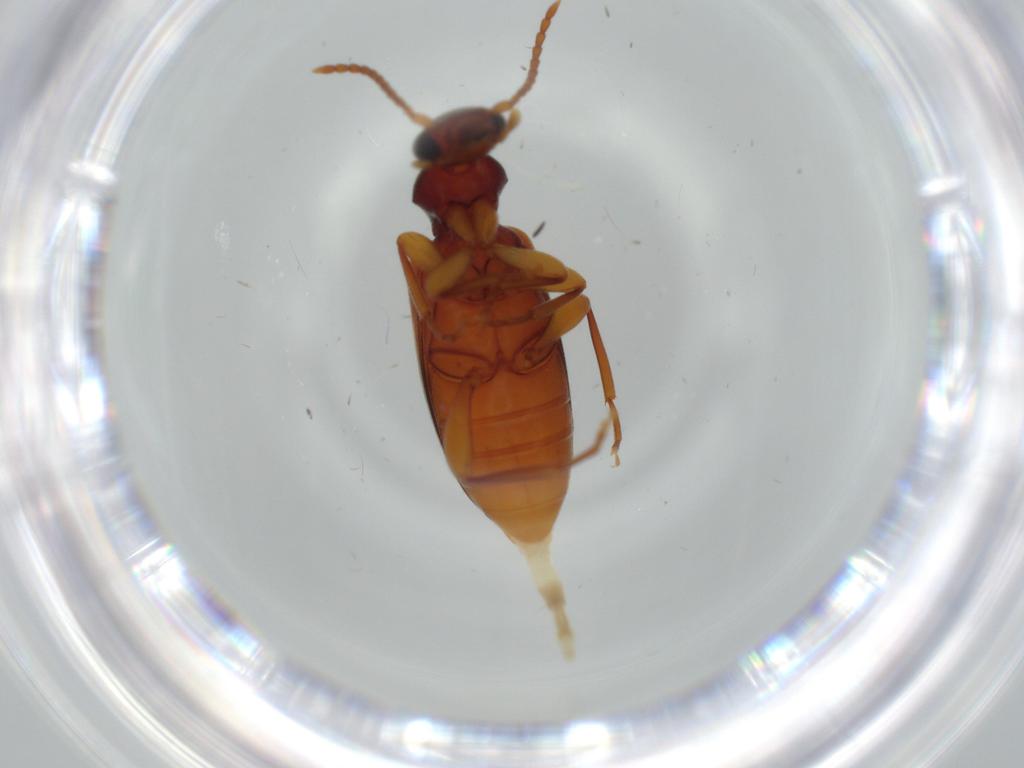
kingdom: Animalia
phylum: Arthropoda
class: Insecta
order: Coleoptera
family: Anthicidae
